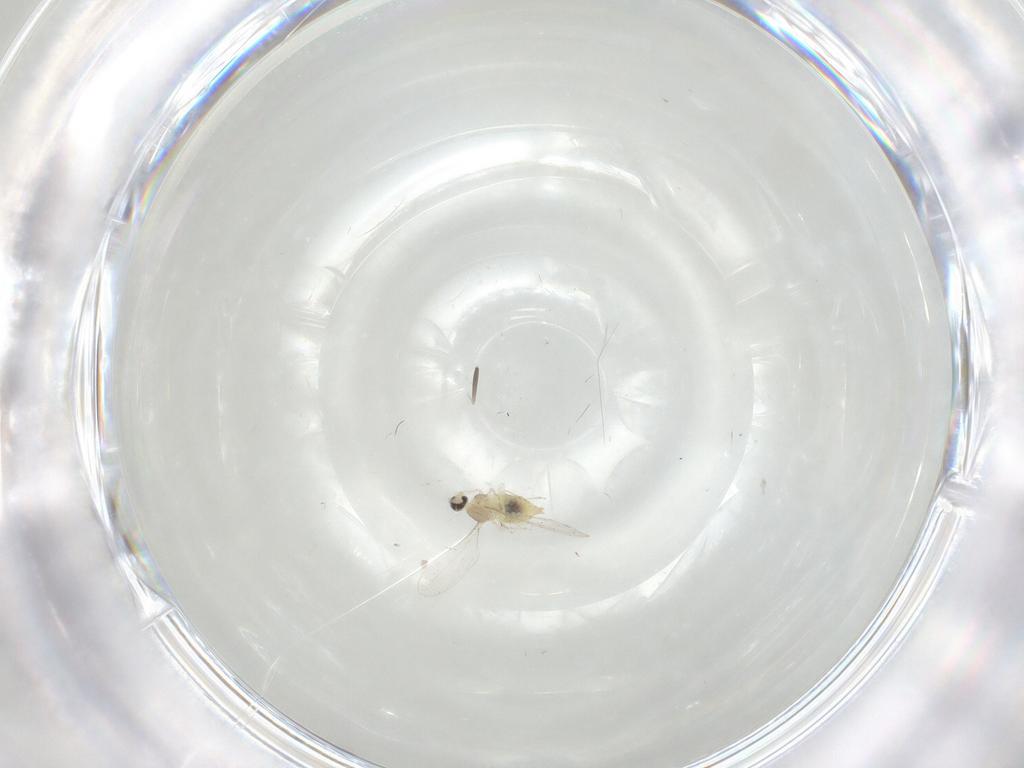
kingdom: Animalia
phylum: Arthropoda
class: Insecta
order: Diptera
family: Cecidomyiidae
